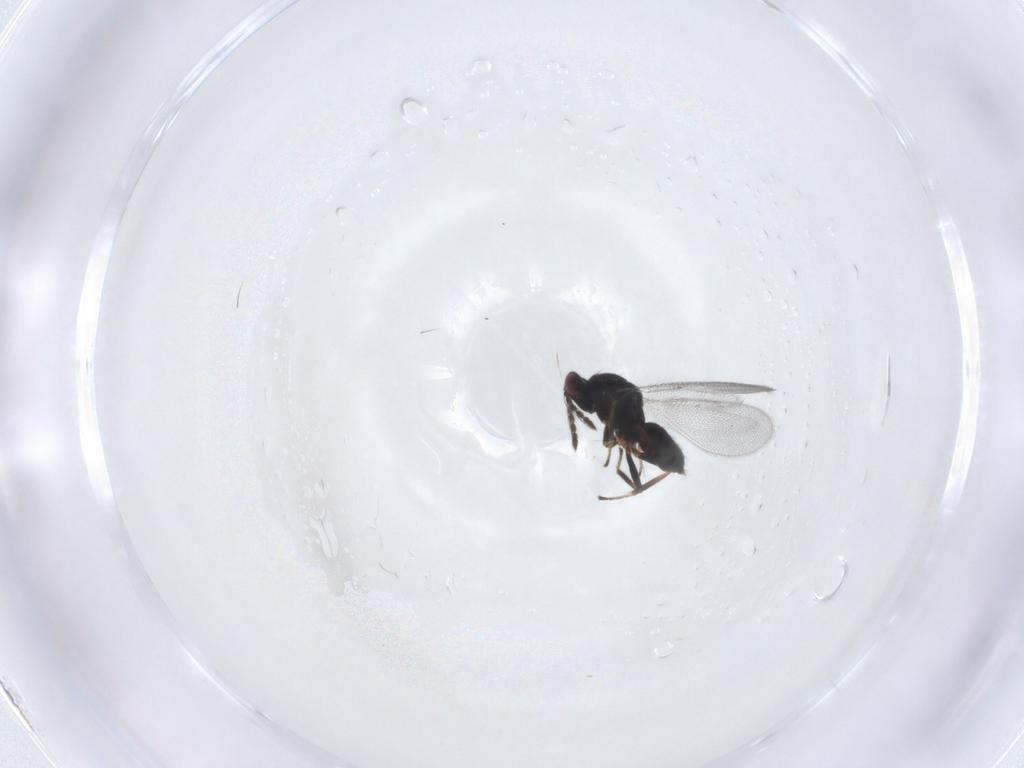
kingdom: Animalia
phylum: Arthropoda
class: Insecta
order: Hymenoptera
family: Eulophidae
